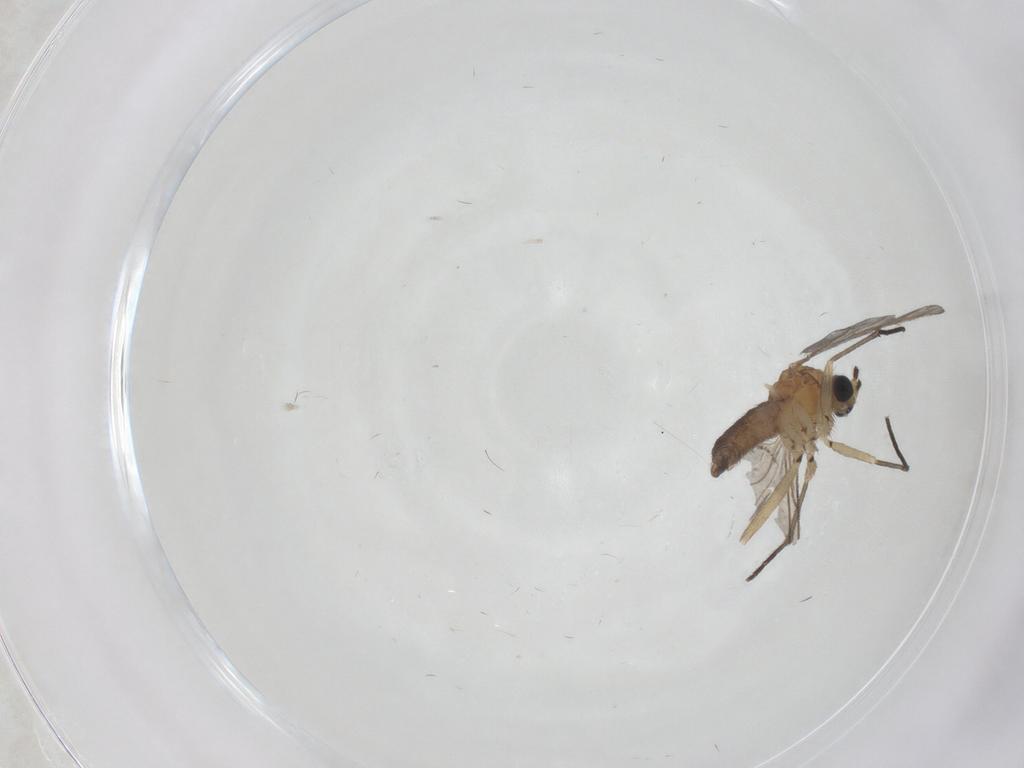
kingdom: Animalia
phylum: Arthropoda
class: Insecta
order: Diptera
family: Sciaridae
